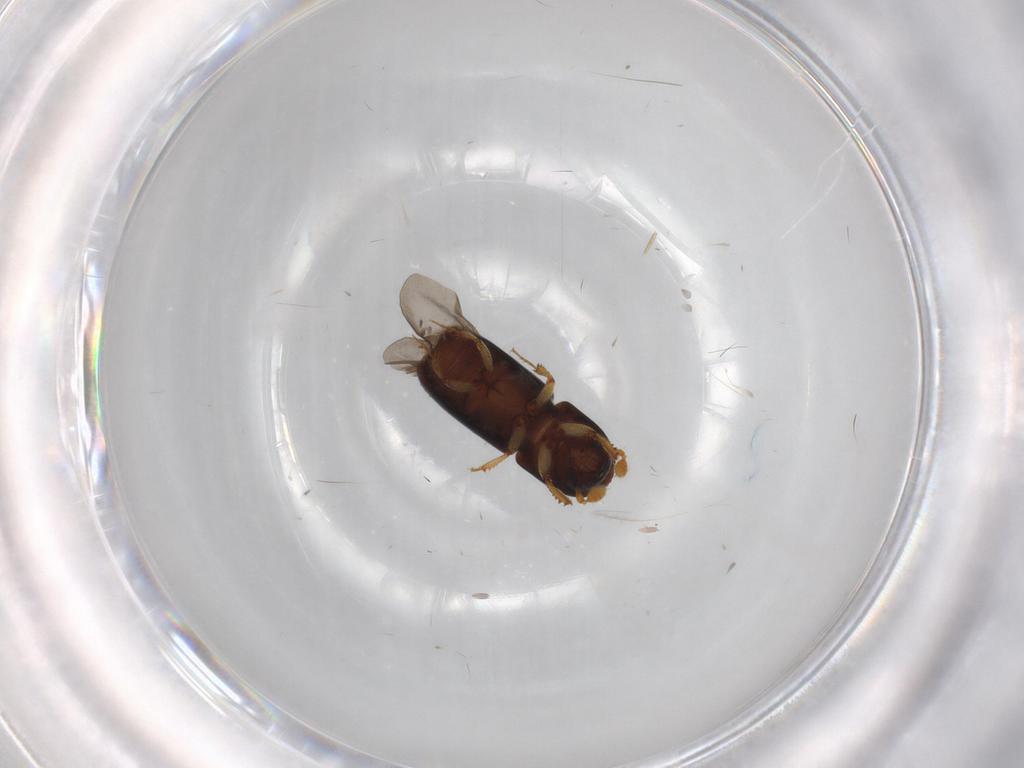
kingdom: Animalia
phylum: Arthropoda
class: Insecta
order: Coleoptera
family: Curculionidae
